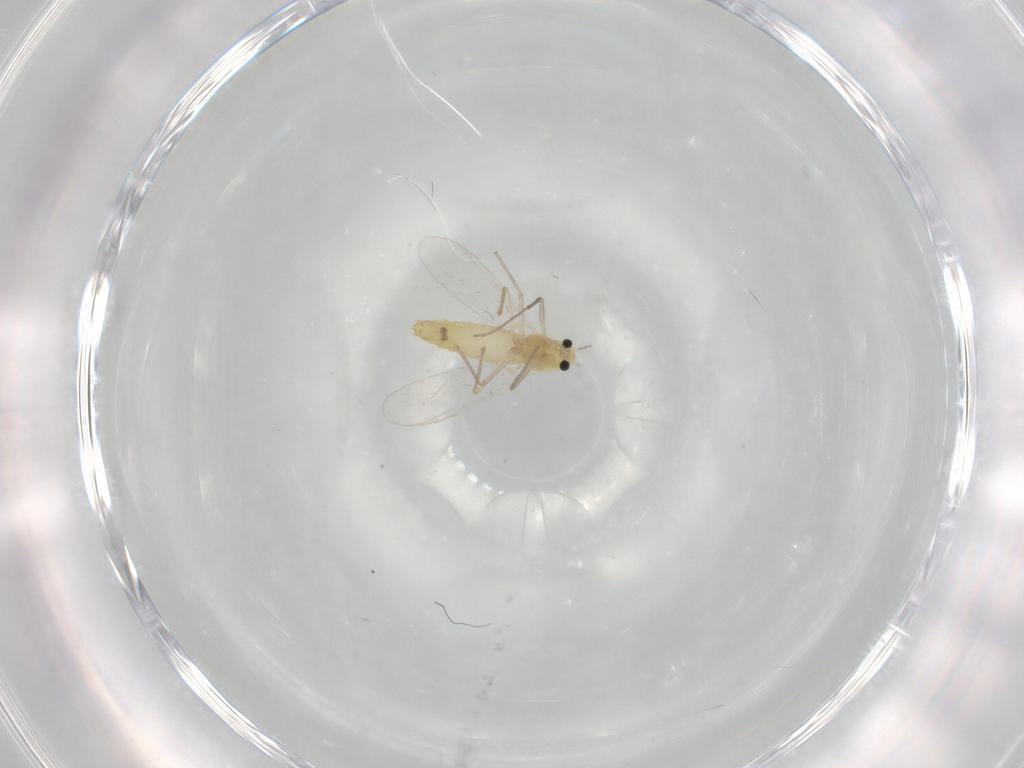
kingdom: Animalia
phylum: Arthropoda
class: Insecta
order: Diptera
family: Chironomidae
